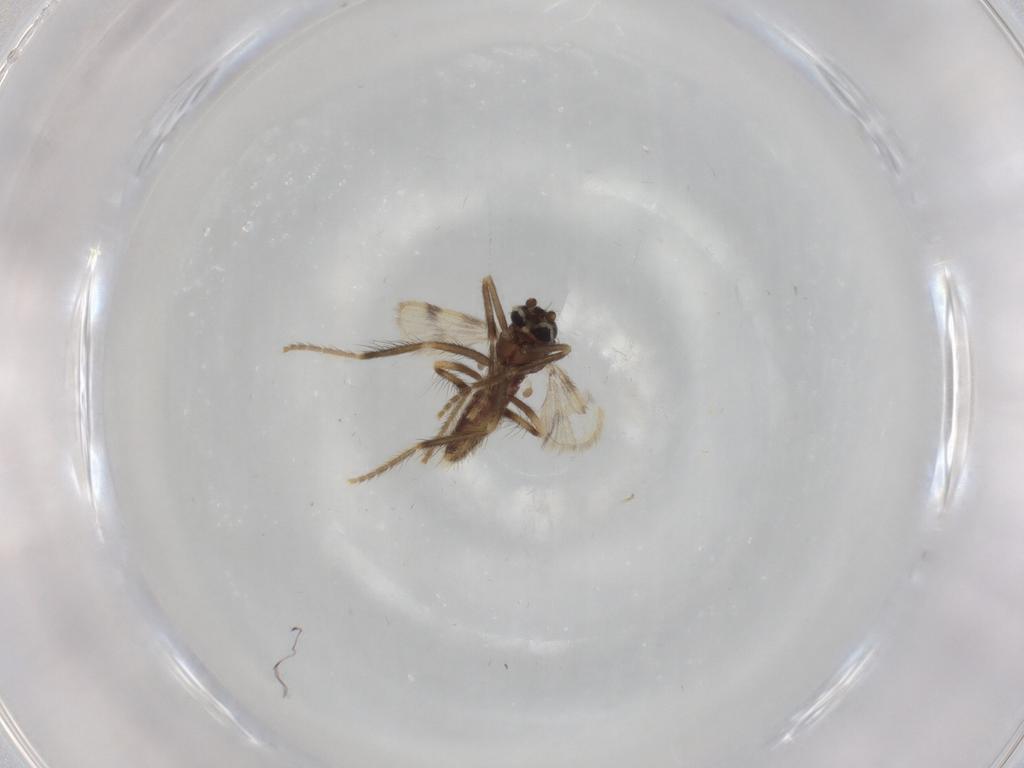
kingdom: Animalia
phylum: Arthropoda
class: Insecta
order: Diptera
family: Corethrellidae
